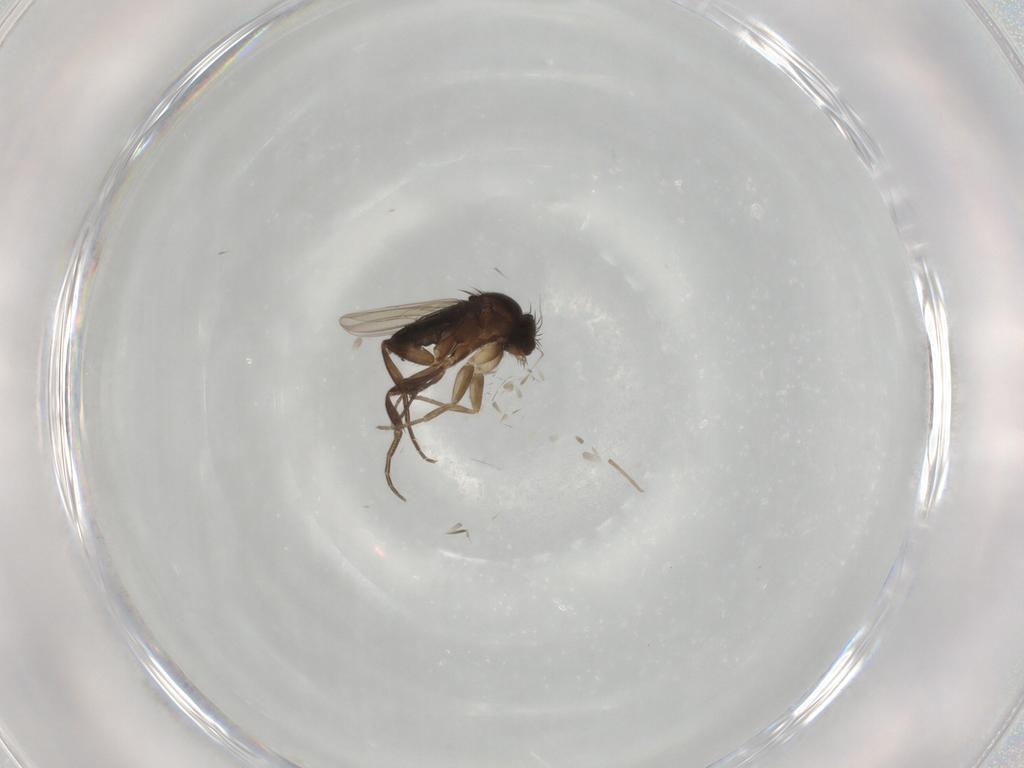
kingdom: Animalia
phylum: Arthropoda
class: Insecta
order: Diptera
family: Phoridae
